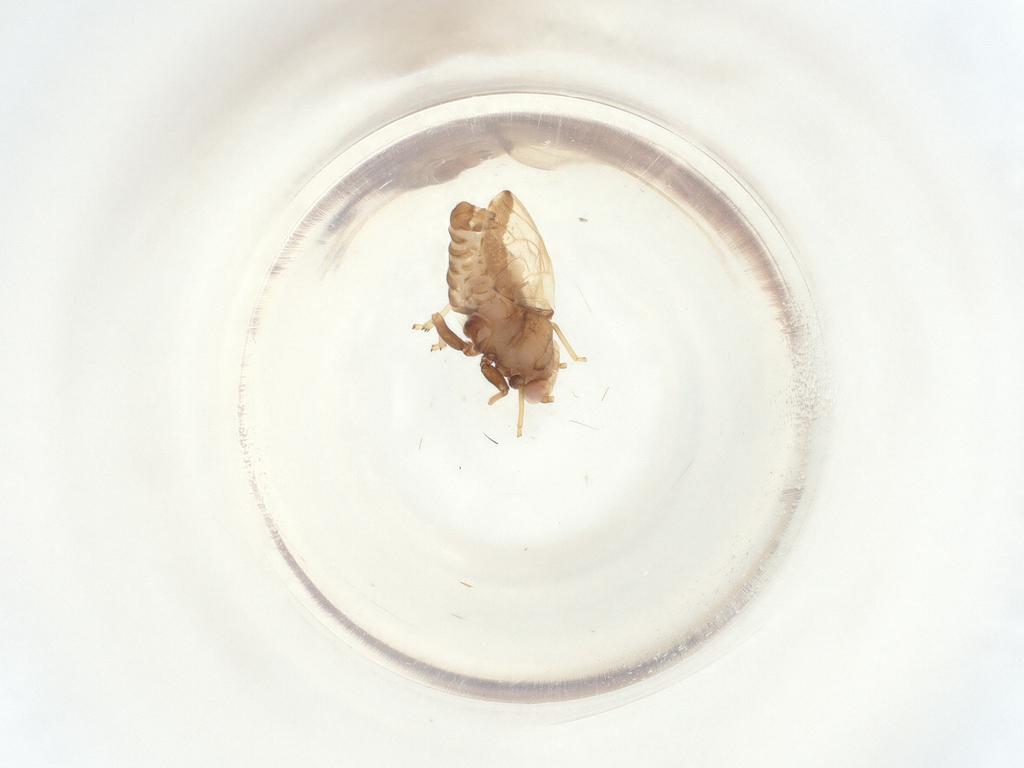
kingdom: Animalia
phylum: Arthropoda
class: Insecta
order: Hemiptera
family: Psyllidae
